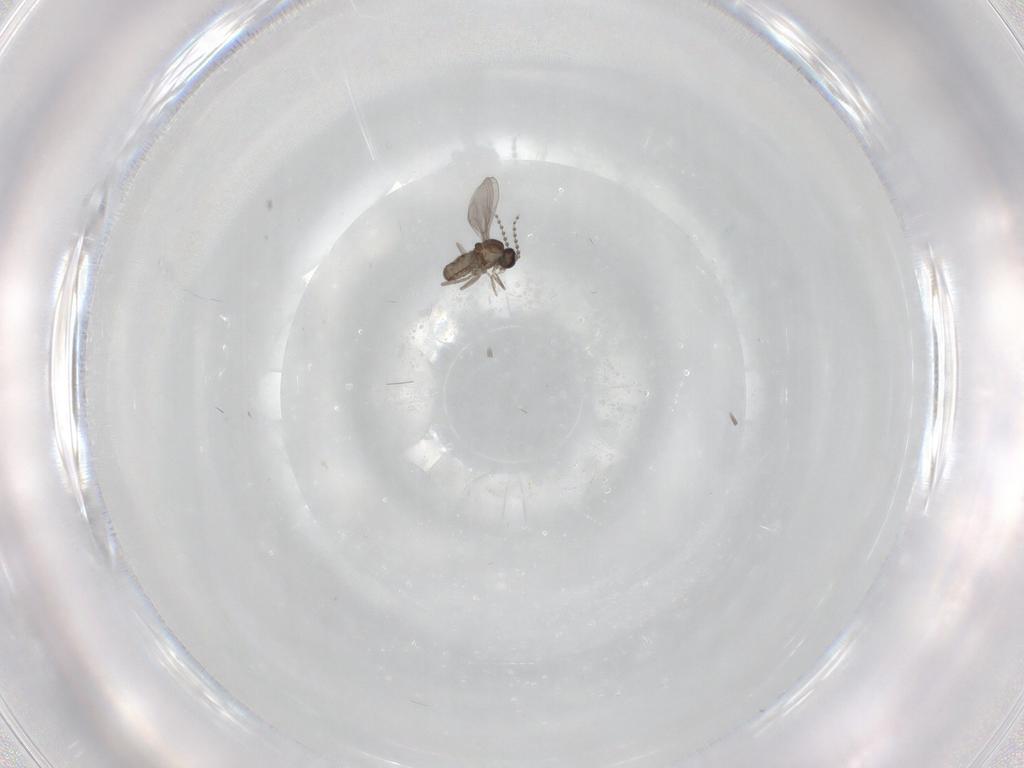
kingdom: Animalia
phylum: Arthropoda
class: Insecta
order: Diptera
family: Cecidomyiidae
